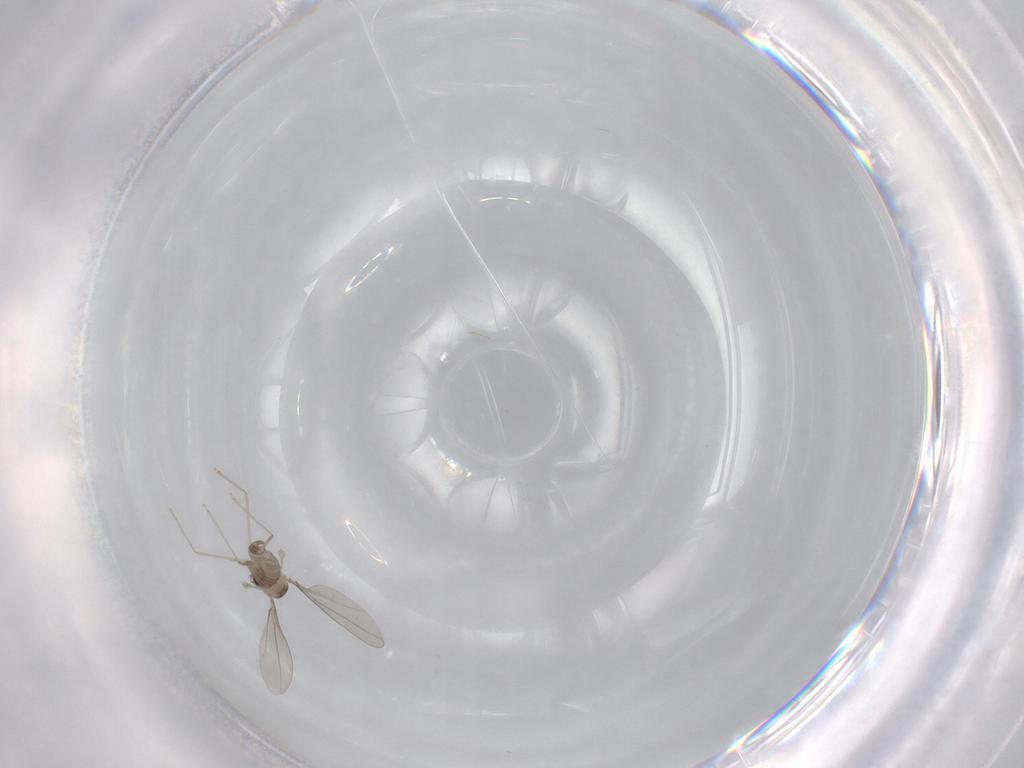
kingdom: Animalia
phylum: Arthropoda
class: Insecta
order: Diptera
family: Cecidomyiidae
